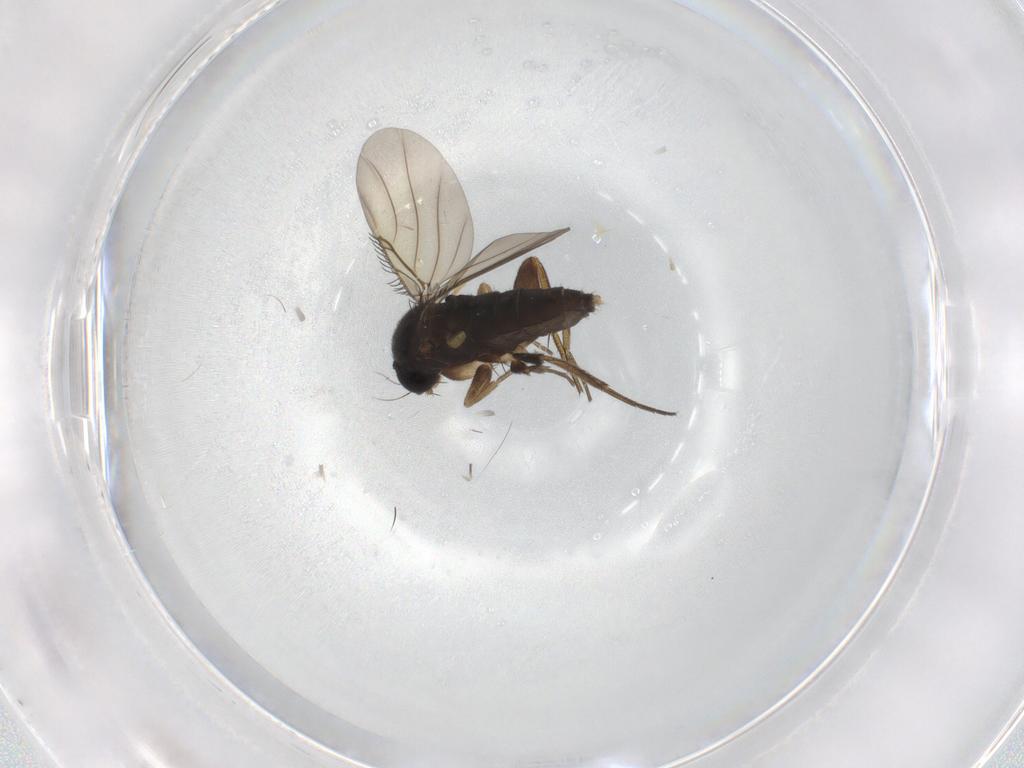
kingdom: Animalia
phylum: Arthropoda
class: Insecta
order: Diptera
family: Phoridae
